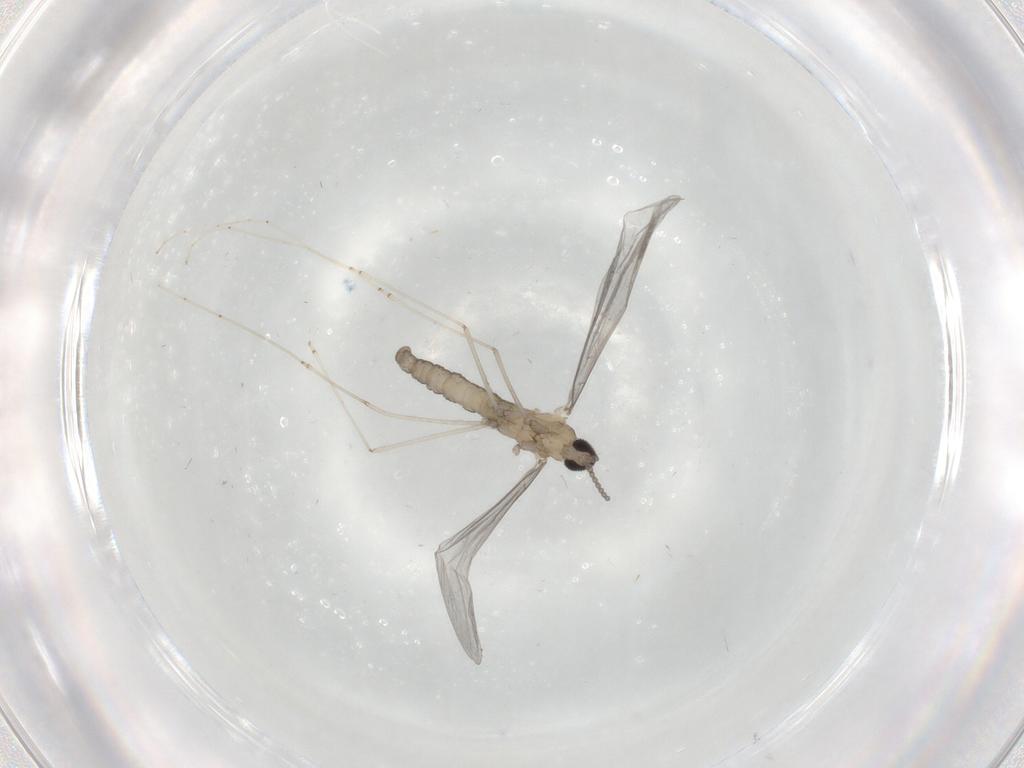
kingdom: Animalia
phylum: Arthropoda
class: Insecta
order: Diptera
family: Ceratopogonidae
